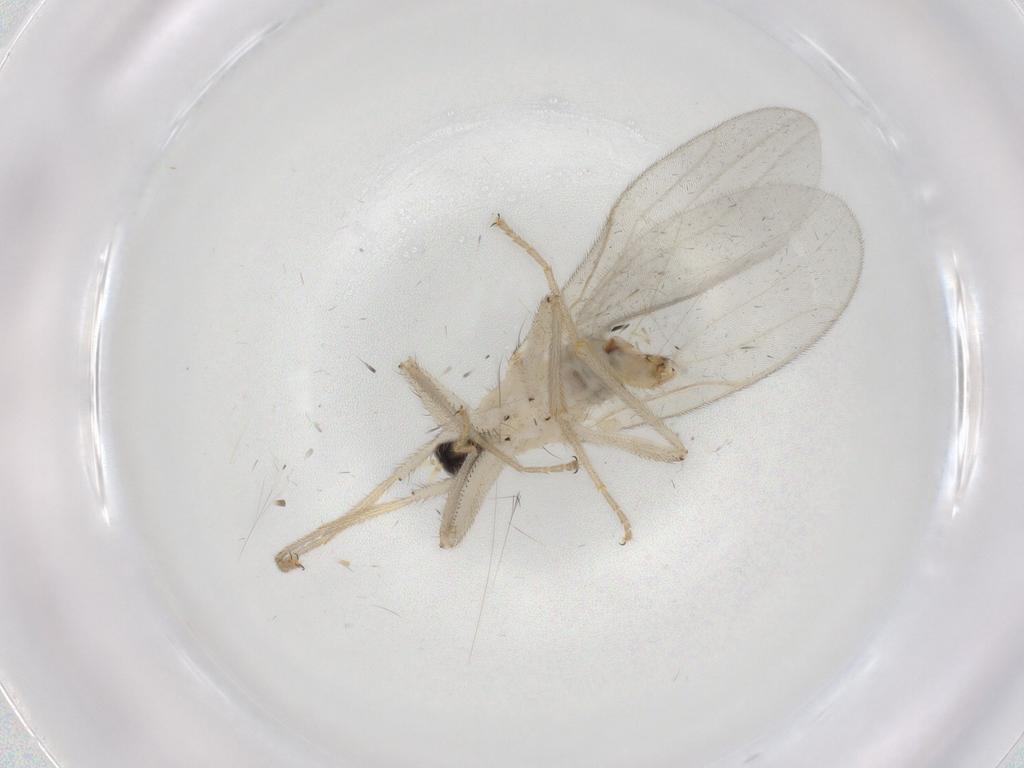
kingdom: Animalia
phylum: Arthropoda
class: Insecta
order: Diptera
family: Hybotidae
